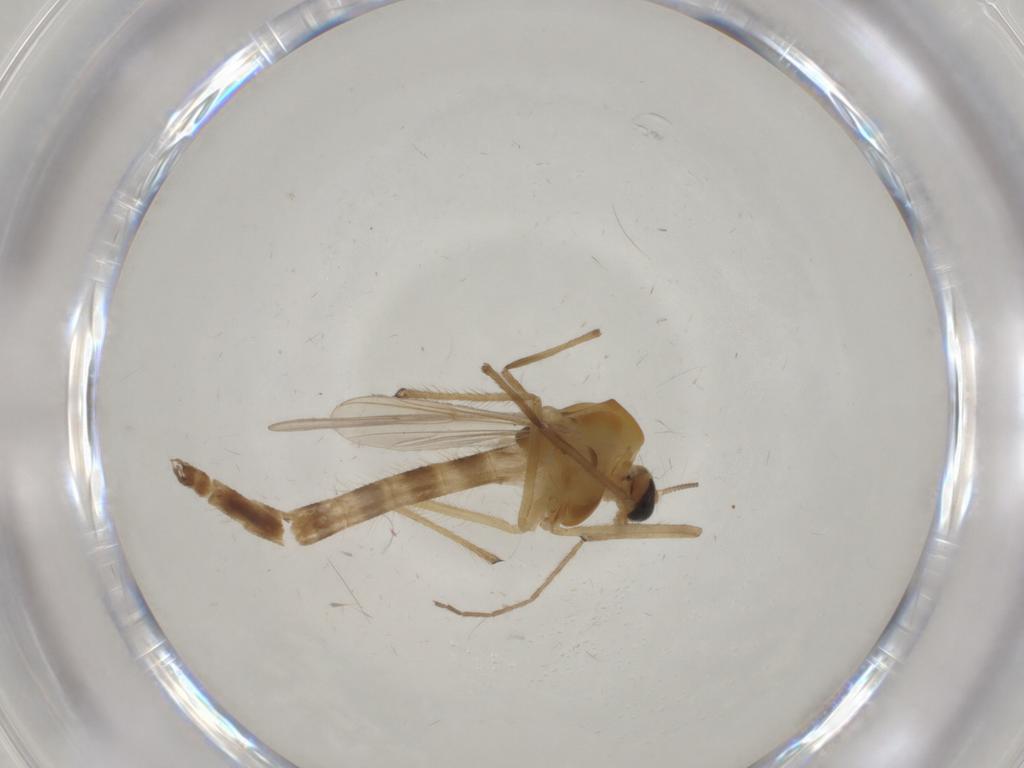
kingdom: Animalia
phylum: Arthropoda
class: Insecta
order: Diptera
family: Chironomidae
